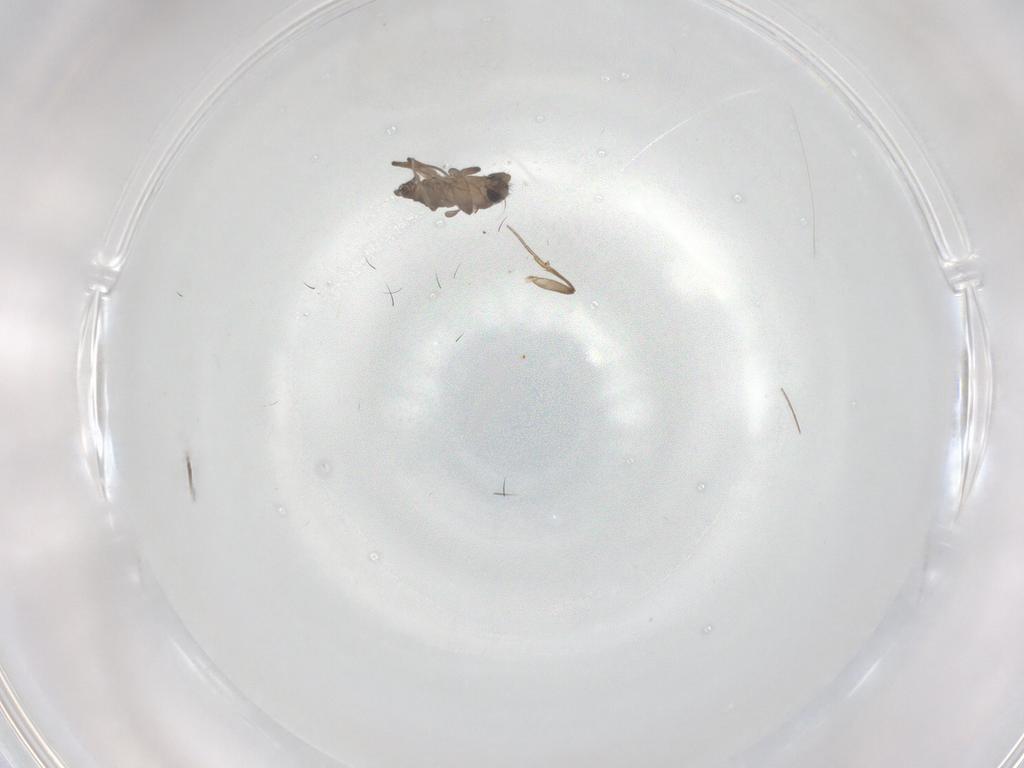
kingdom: Animalia
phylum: Arthropoda
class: Insecta
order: Diptera
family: Phoridae
